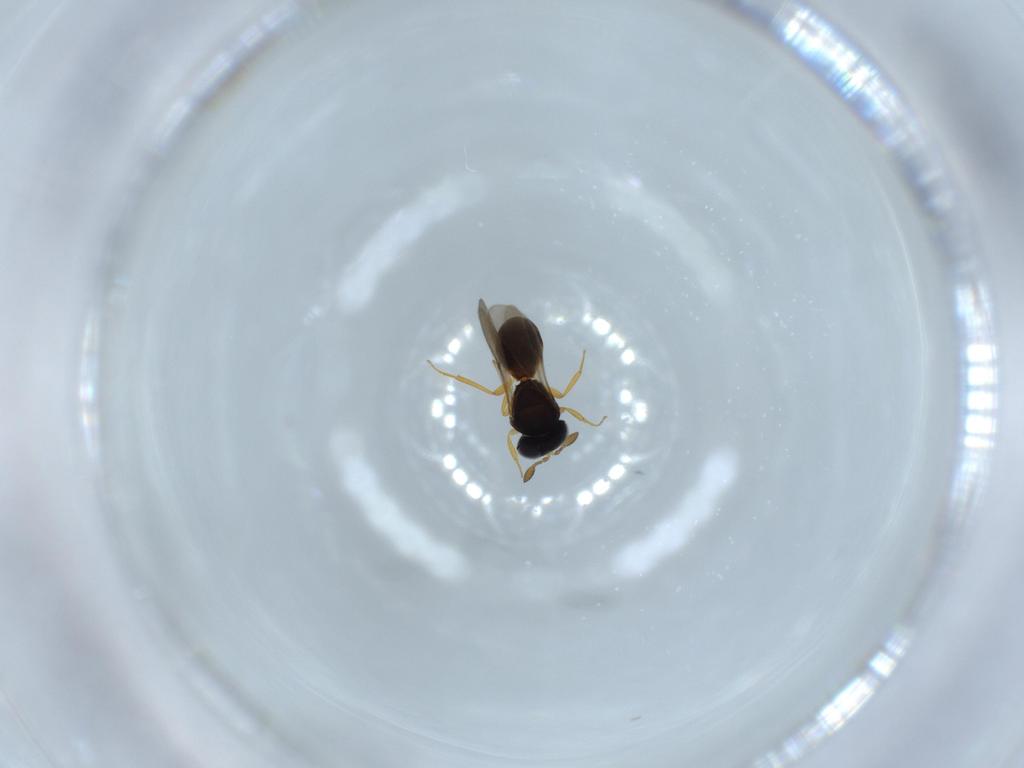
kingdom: Animalia
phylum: Arthropoda
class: Insecta
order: Hymenoptera
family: Scelionidae
